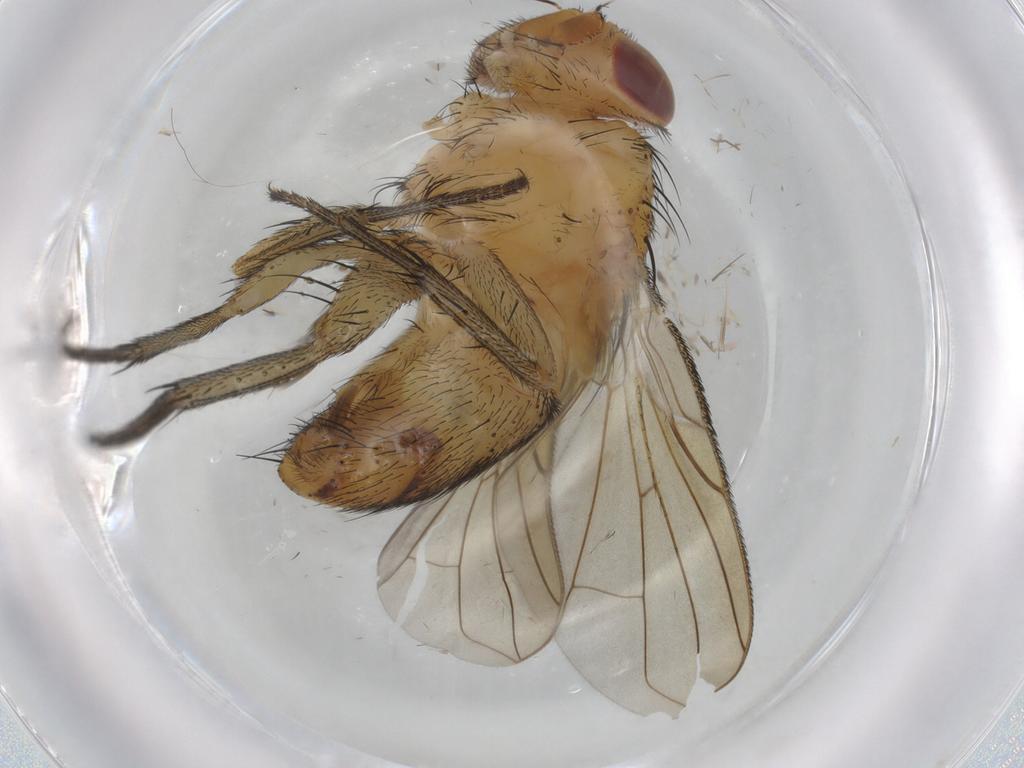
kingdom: Animalia
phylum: Arthropoda
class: Insecta
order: Diptera
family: Calliphoridae
